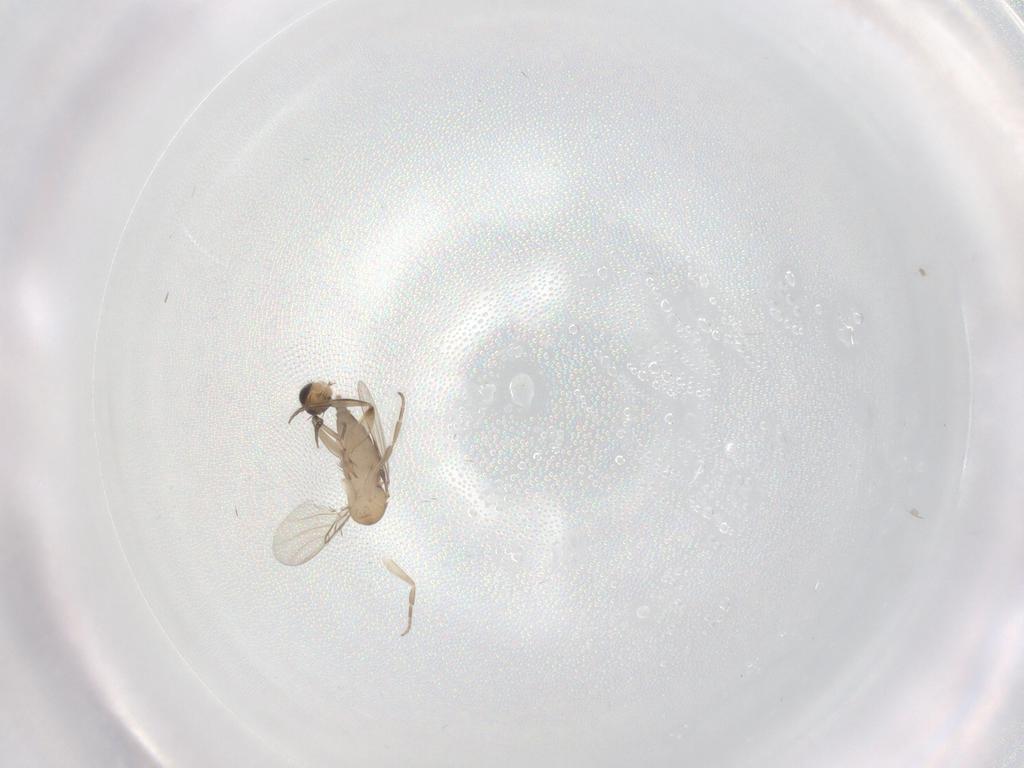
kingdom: Animalia
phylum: Arthropoda
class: Insecta
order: Diptera
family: Phoridae
